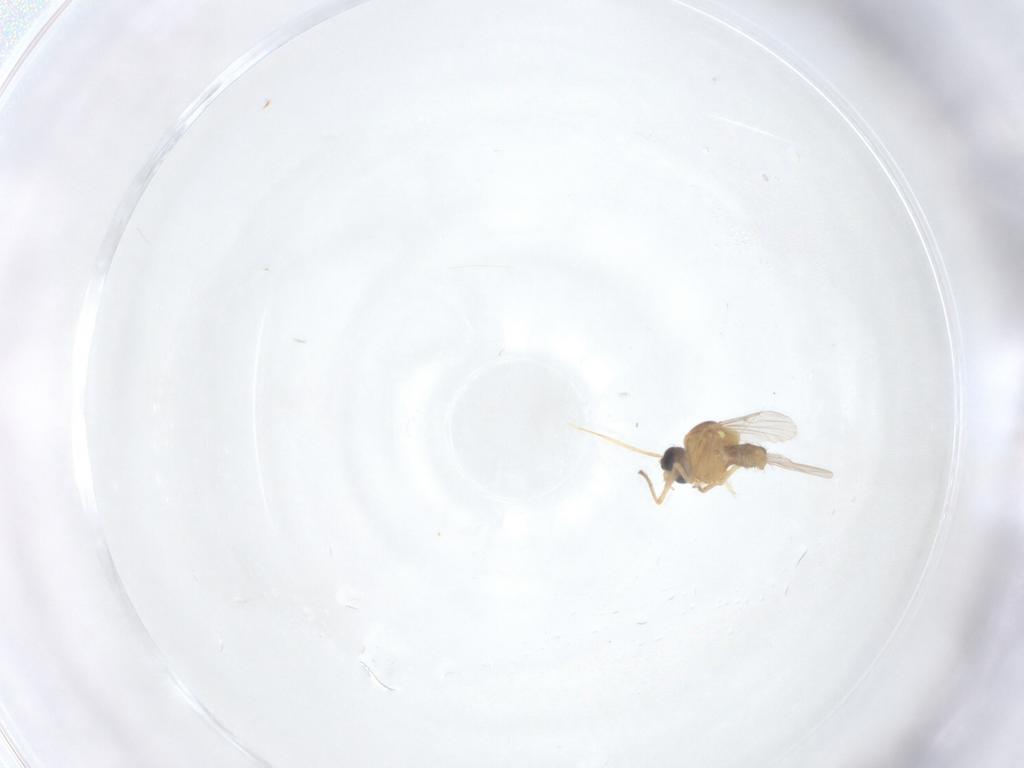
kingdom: Animalia
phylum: Arthropoda
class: Insecta
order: Diptera
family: Ceratopogonidae
